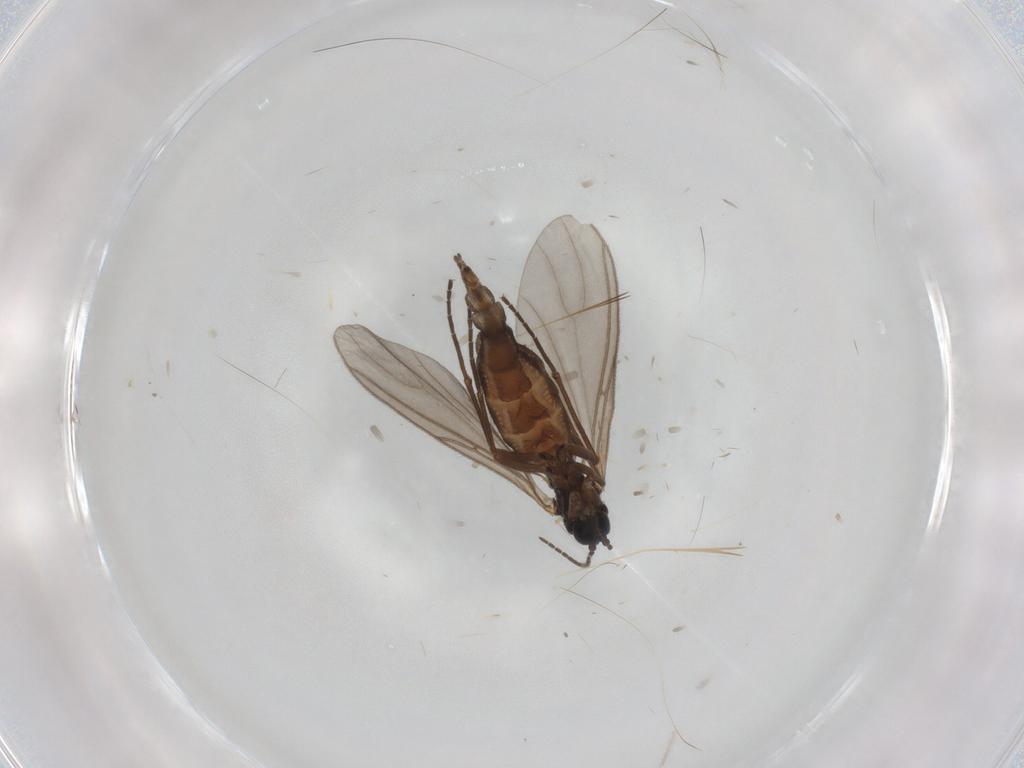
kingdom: Animalia
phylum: Arthropoda
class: Insecta
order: Diptera
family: Sciaridae
